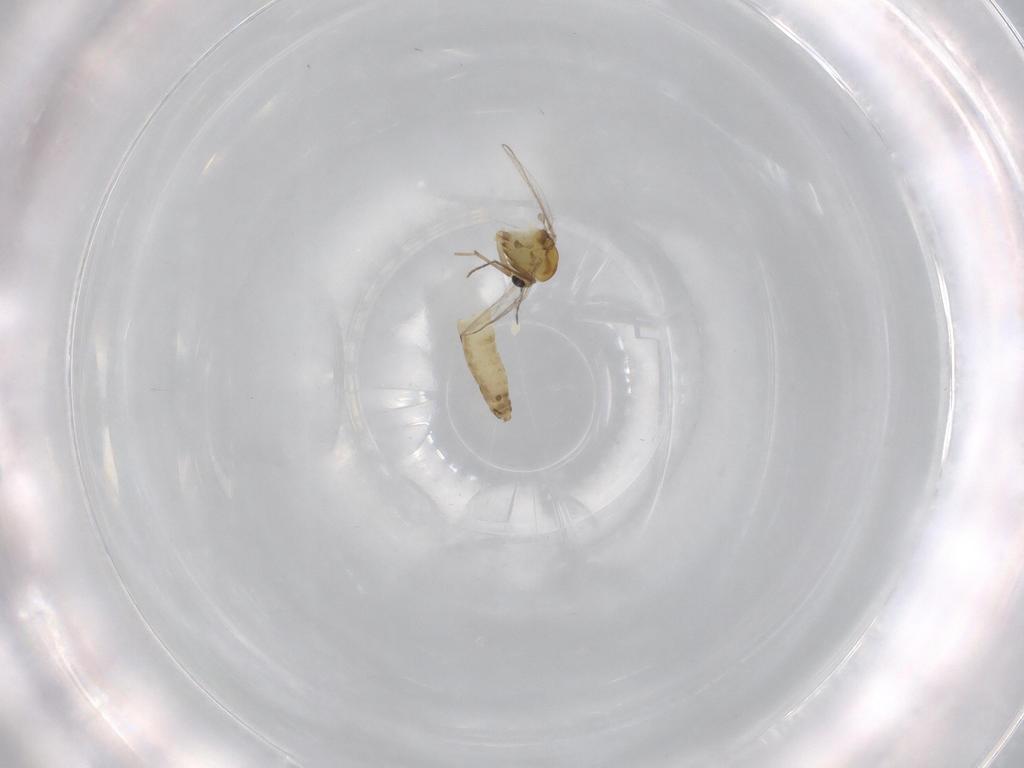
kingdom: Animalia
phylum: Arthropoda
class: Insecta
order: Diptera
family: Chironomidae
